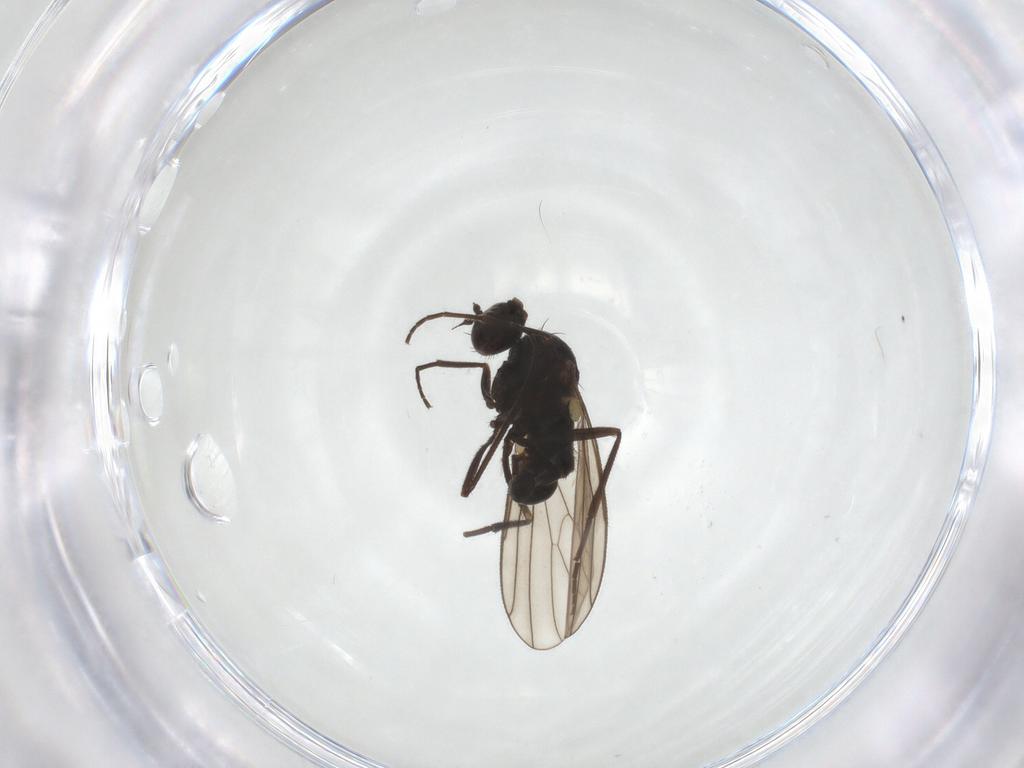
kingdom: Animalia
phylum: Arthropoda
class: Insecta
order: Diptera
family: Dolichopodidae
